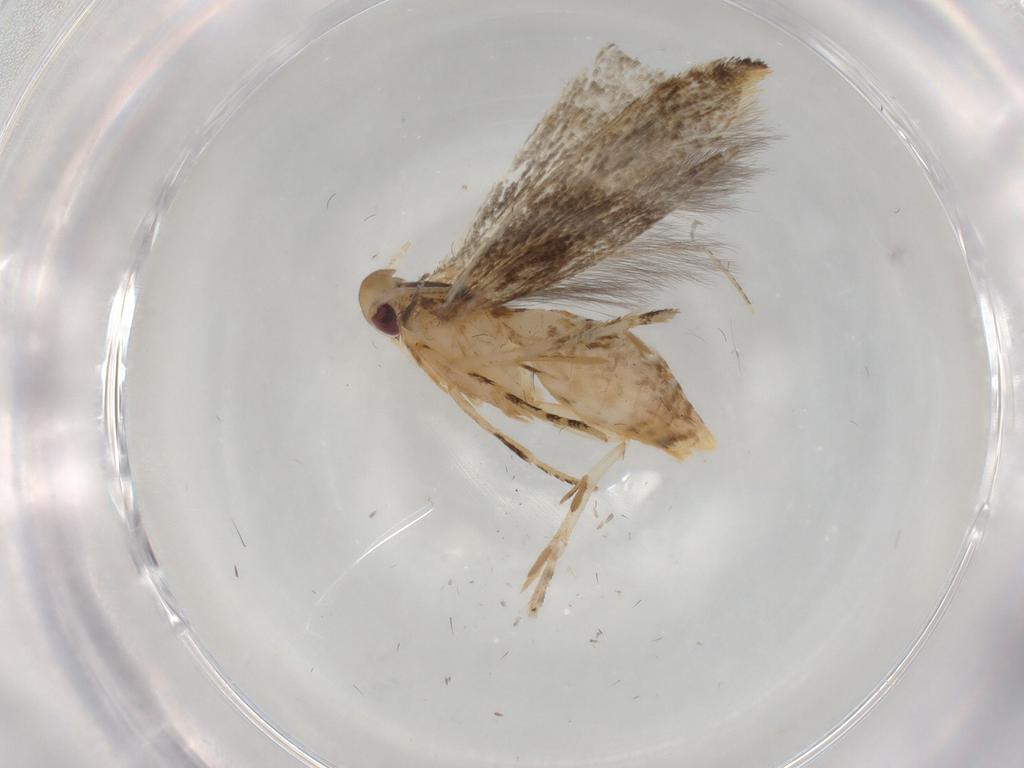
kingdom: Animalia
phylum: Arthropoda
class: Insecta
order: Lepidoptera
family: Momphidae
